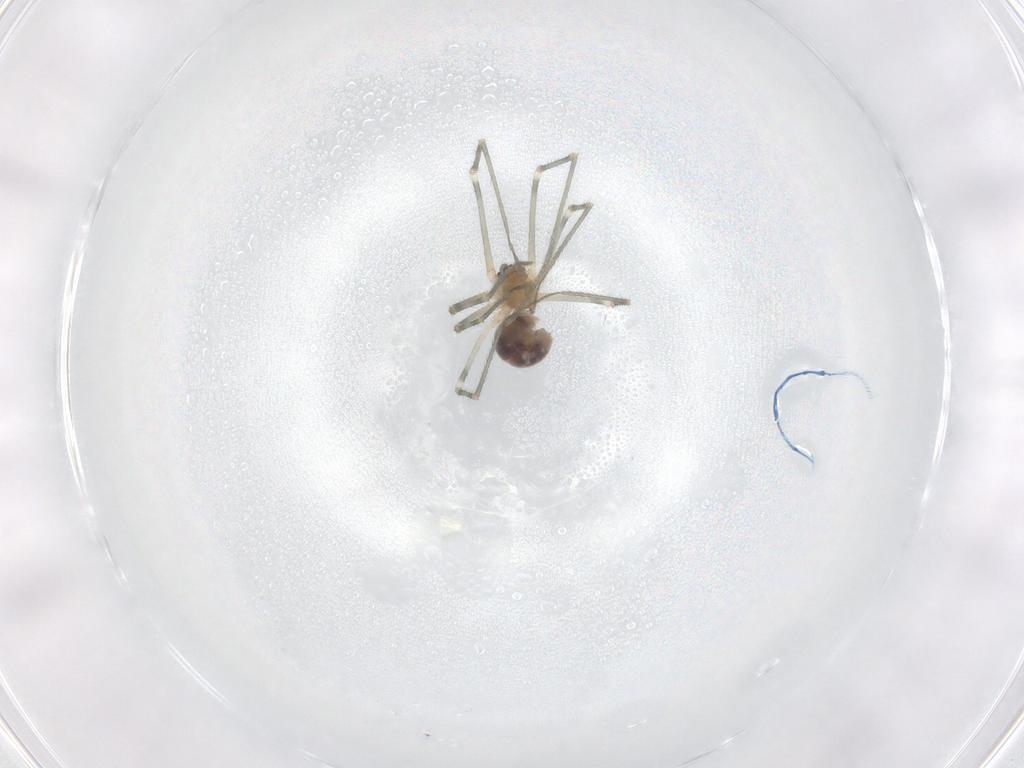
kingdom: Animalia
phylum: Arthropoda
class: Arachnida
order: Araneae
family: Pholcidae
